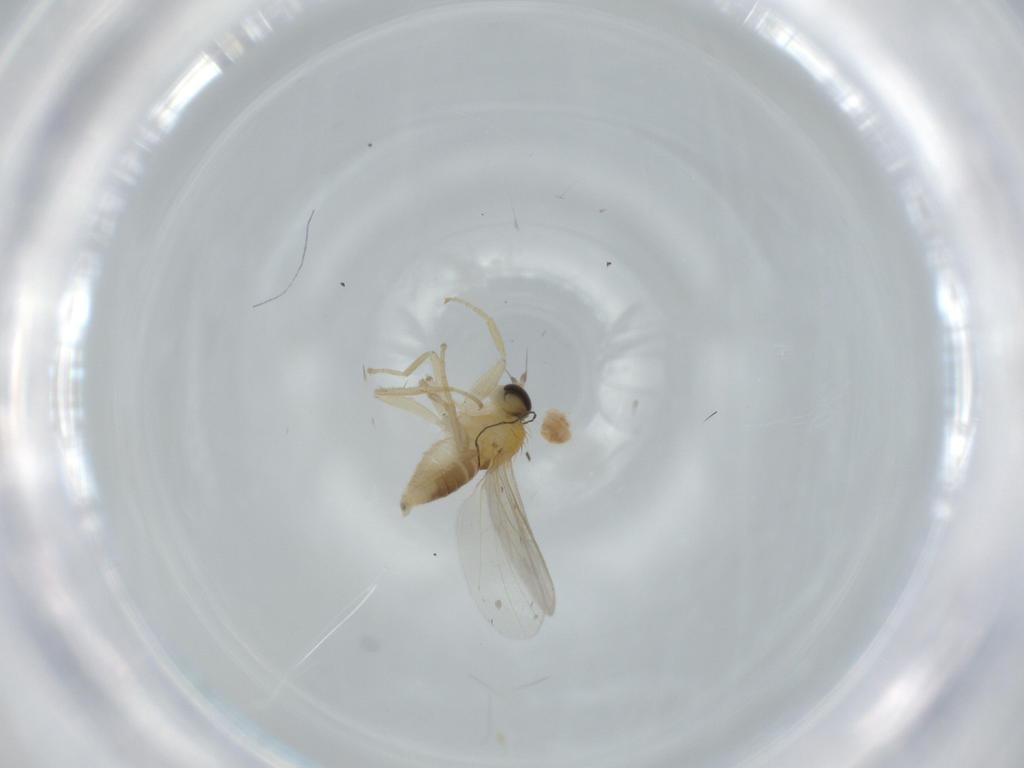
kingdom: Animalia
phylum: Arthropoda
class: Insecta
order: Diptera
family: Hybotidae
